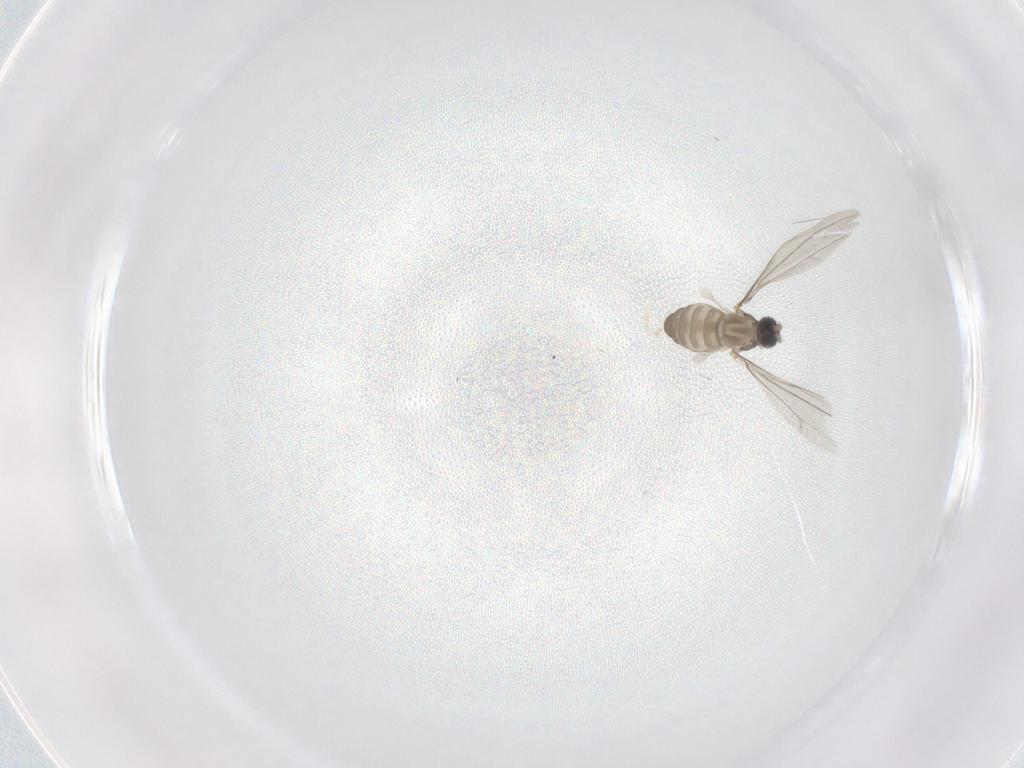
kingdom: Animalia
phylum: Arthropoda
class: Insecta
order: Diptera
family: Cecidomyiidae
